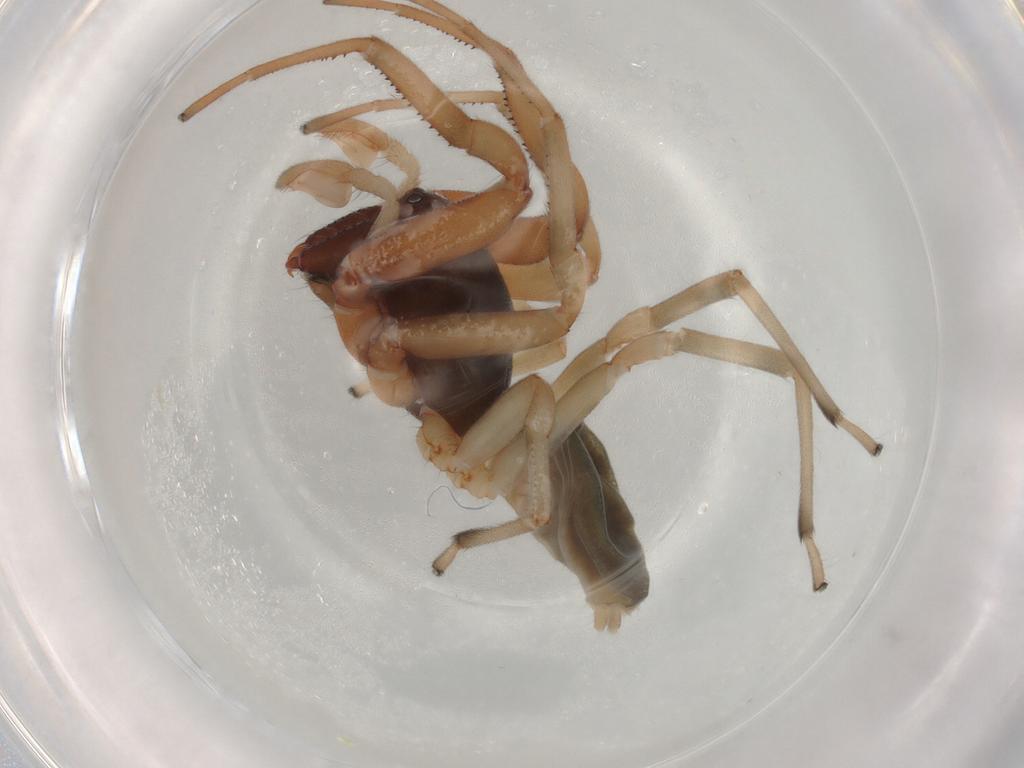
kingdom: Animalia
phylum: Arthropoda
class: Arachnida
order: Araneae
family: Trachelidae
